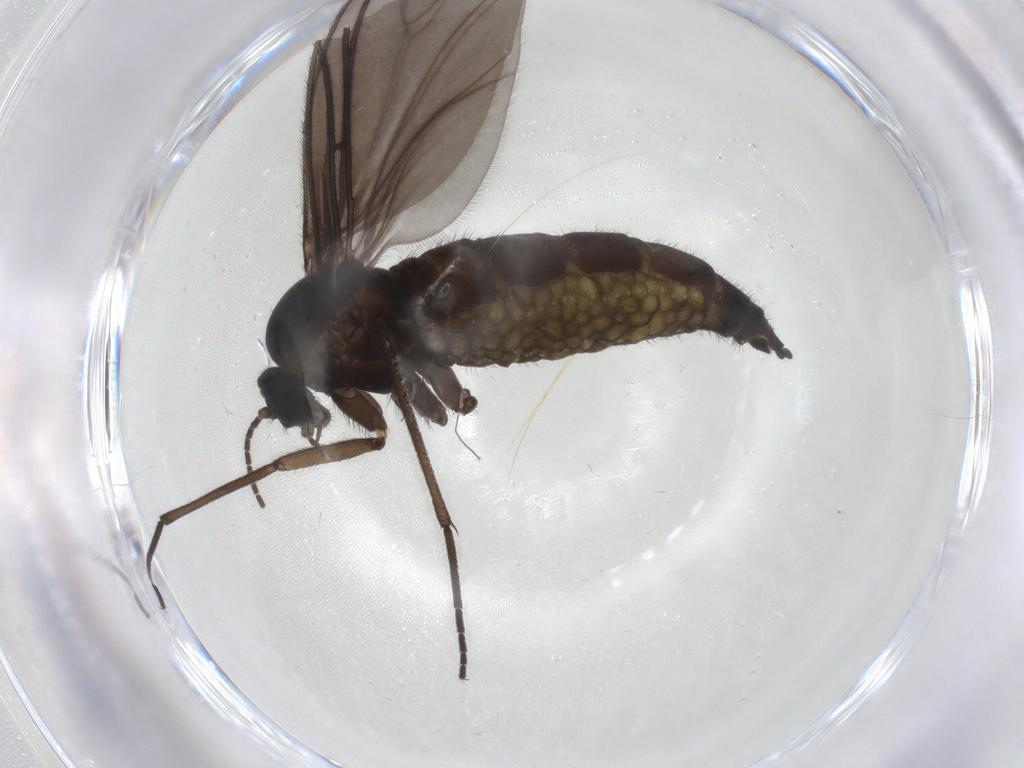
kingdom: Animalia
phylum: Arthropoda
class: Insecta
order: Diptera
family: Sciaridae
